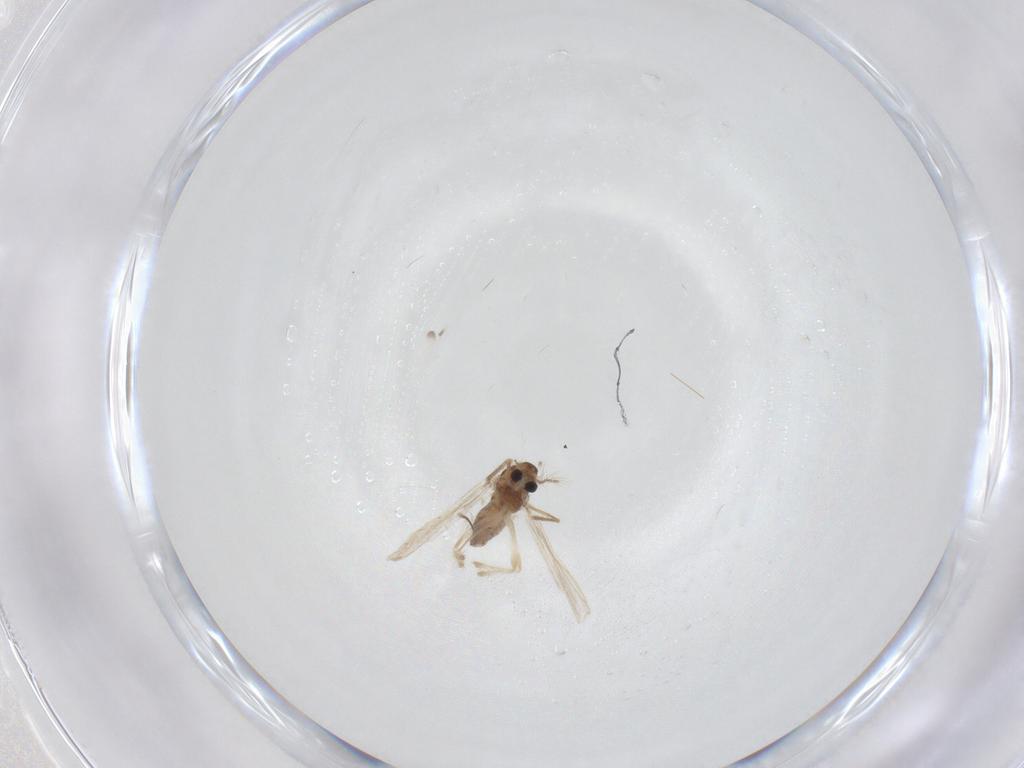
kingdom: Animalia
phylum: Arthropoda
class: Insecta
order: Diptera
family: Chironomidae
